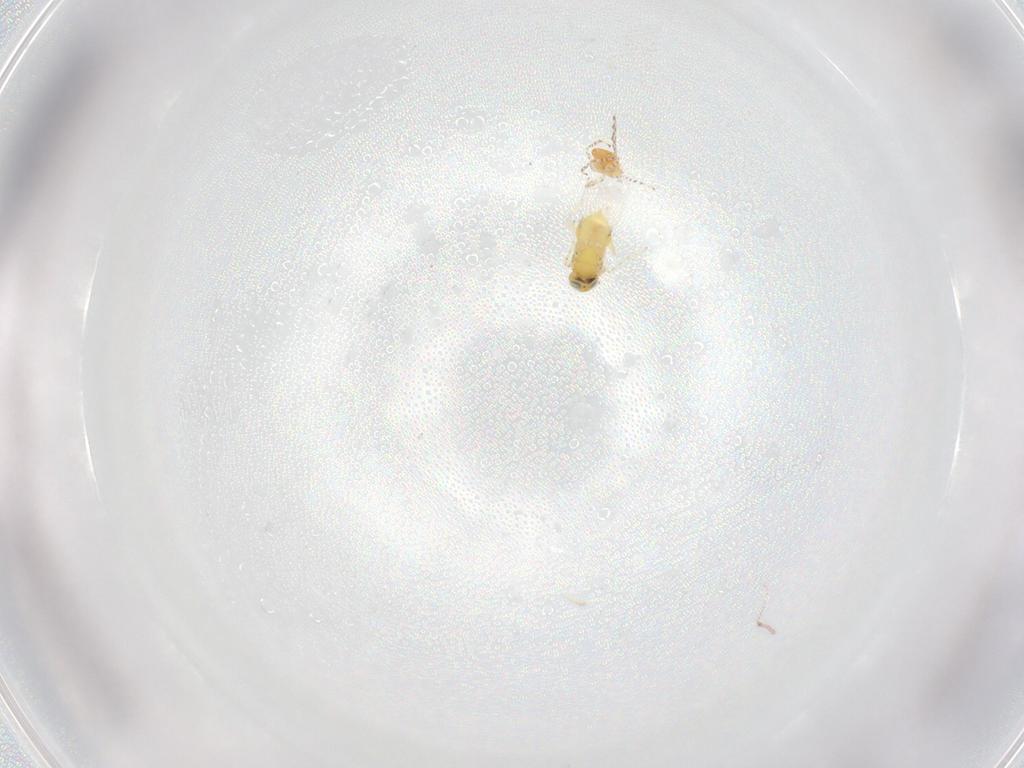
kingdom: Animalia
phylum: Arthropoda
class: Insecta
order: Hymenoptera
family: Aphelinidae
